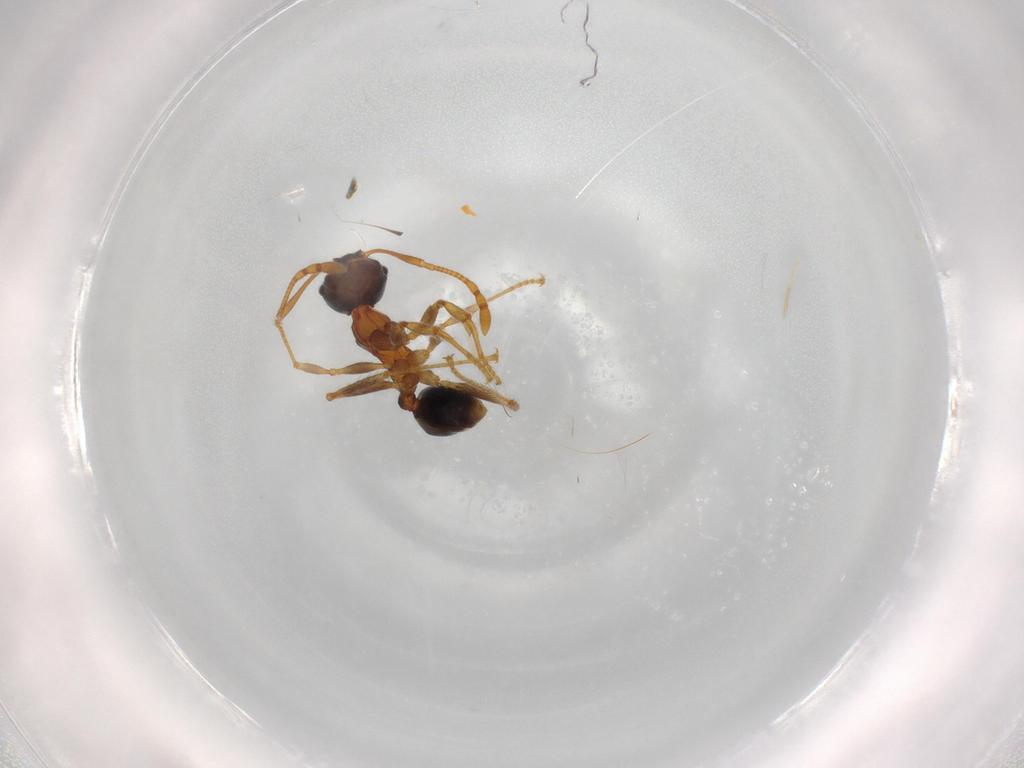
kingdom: Animalia
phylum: Arthropoda
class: Insecta
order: Hymenoptera
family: Formicidae
